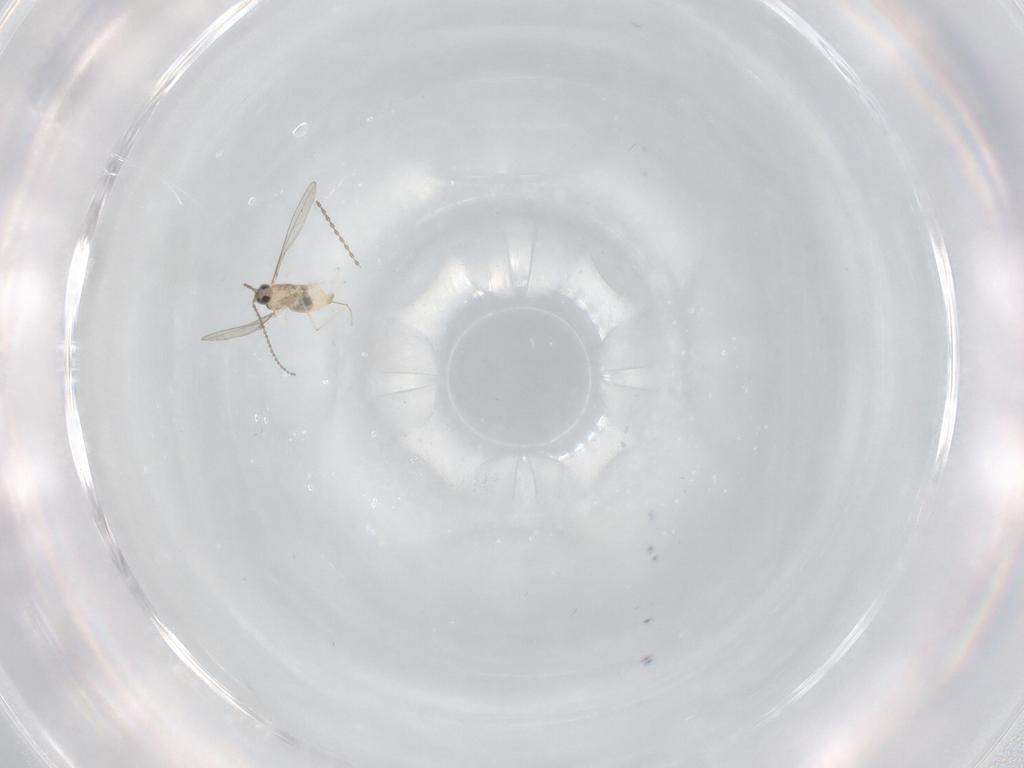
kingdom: Animalia
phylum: Arthropoda
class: Insecta
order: Diptera
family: Cecidomyiidae
